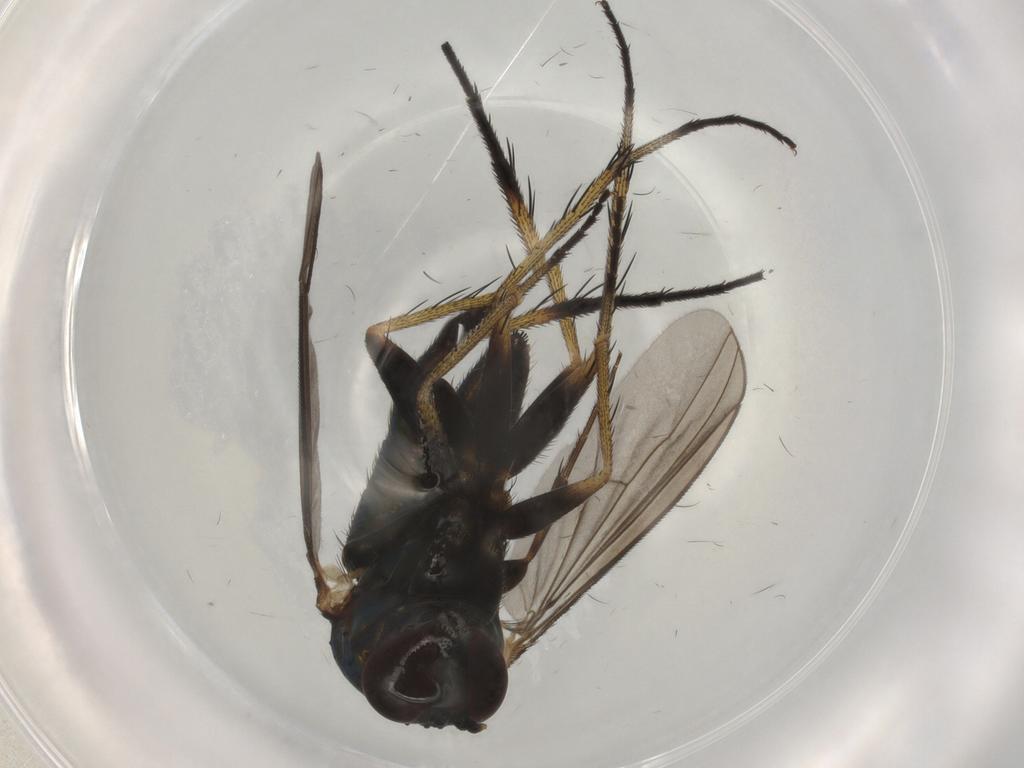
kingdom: Animalia
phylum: Arthropoda
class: Insecta
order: Diptera
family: Dolichopodidae
